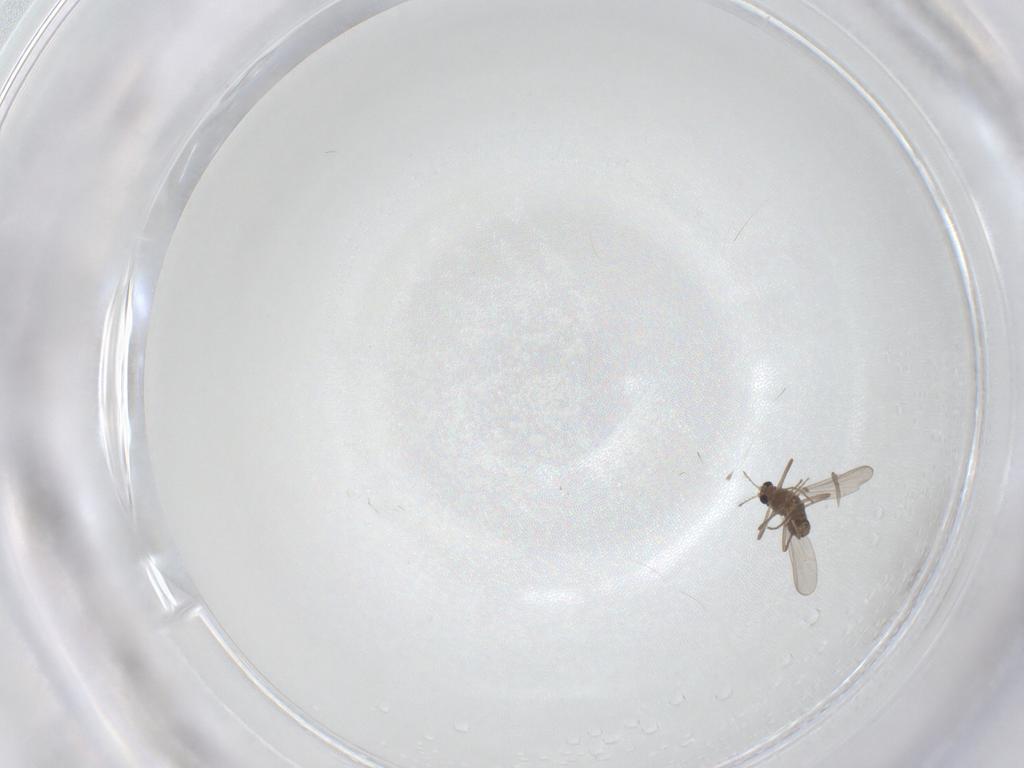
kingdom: Animalia
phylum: Arthropoda
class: Insecta
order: Diptera
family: Chironomidae
